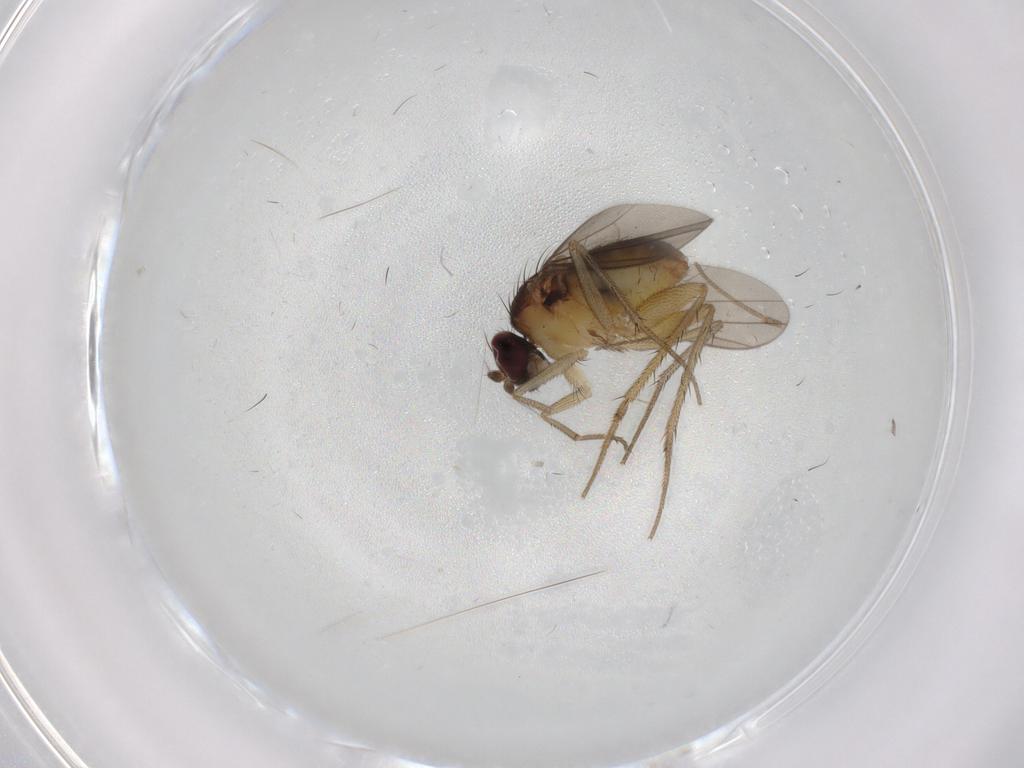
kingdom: Animalia
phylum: Arthropoda
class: Insecta
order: Diptera
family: Dolichopodidae
